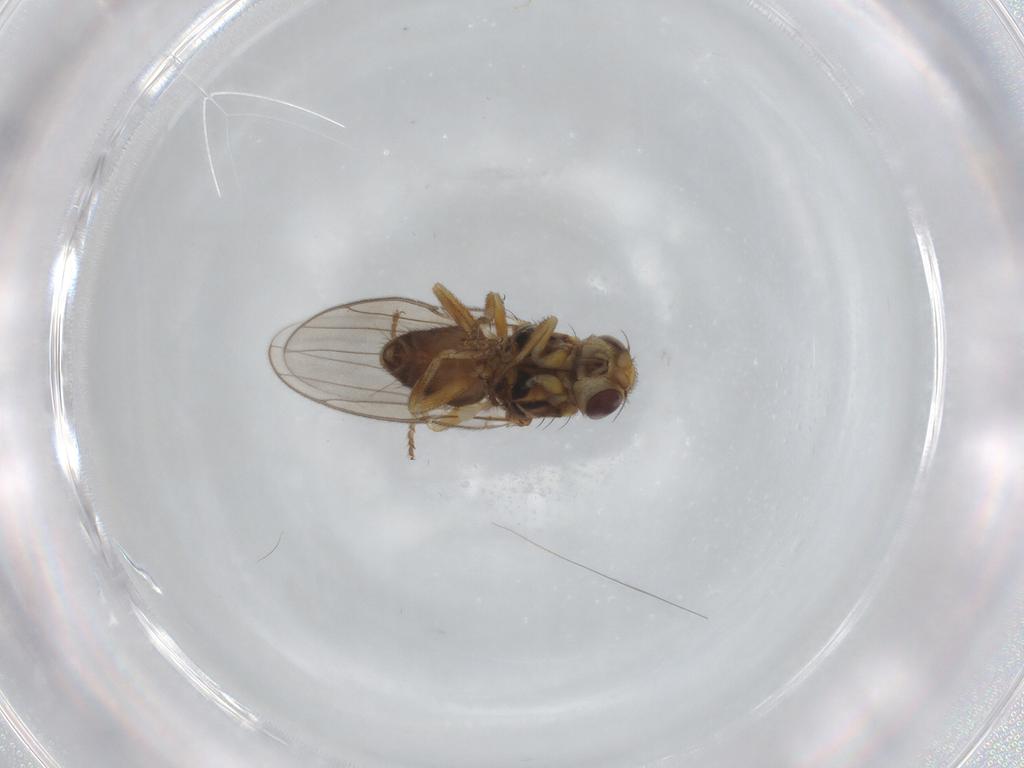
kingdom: Animalia
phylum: Arthropoda
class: Insecta
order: Diptera
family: Chloropidae
